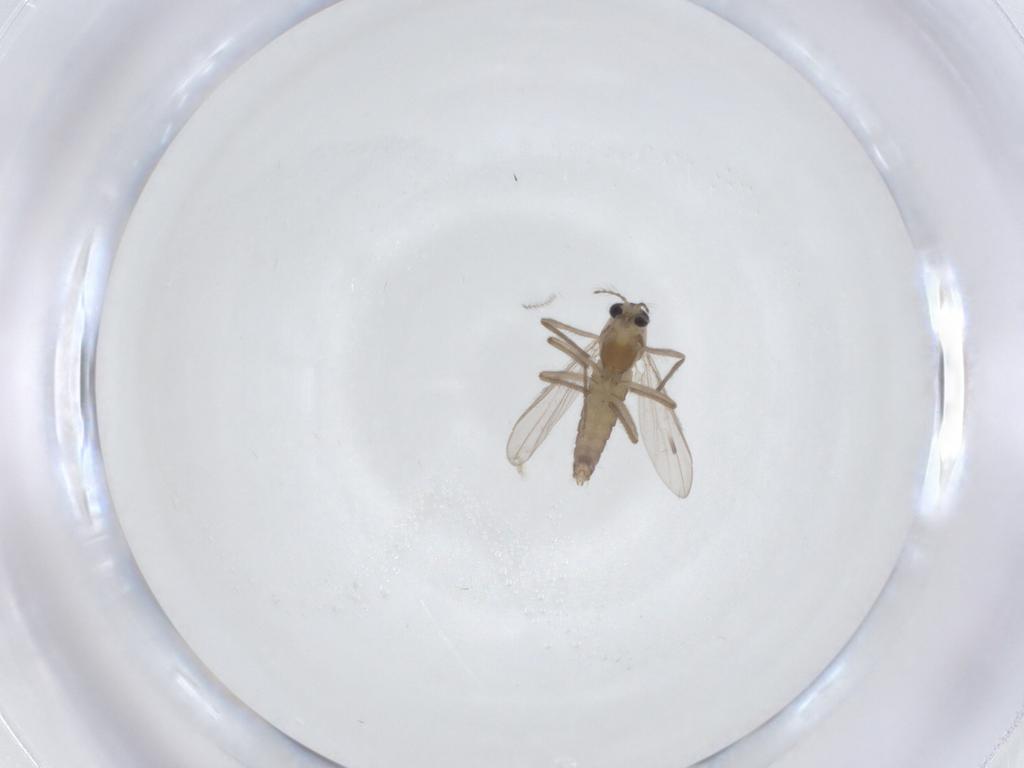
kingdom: Animalia
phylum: Arthropoda
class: Insecta
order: Diptera
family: Chironomidae
